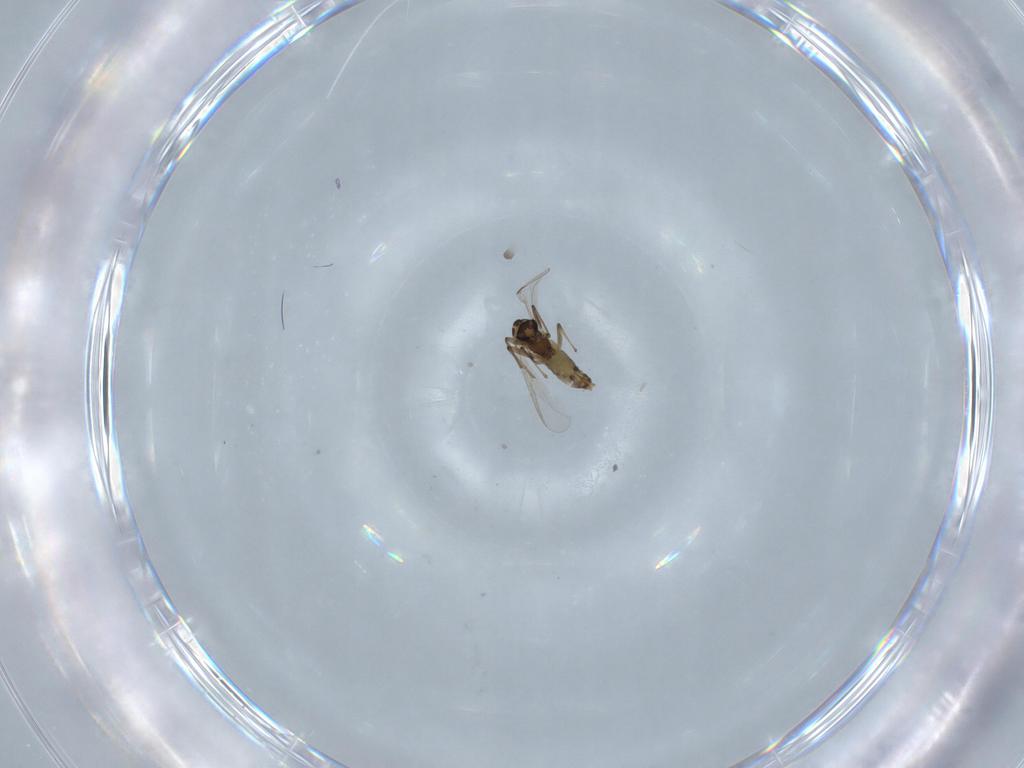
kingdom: Animalia
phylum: Arthropoda
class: Insecta
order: Diptera
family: Chironomidae
